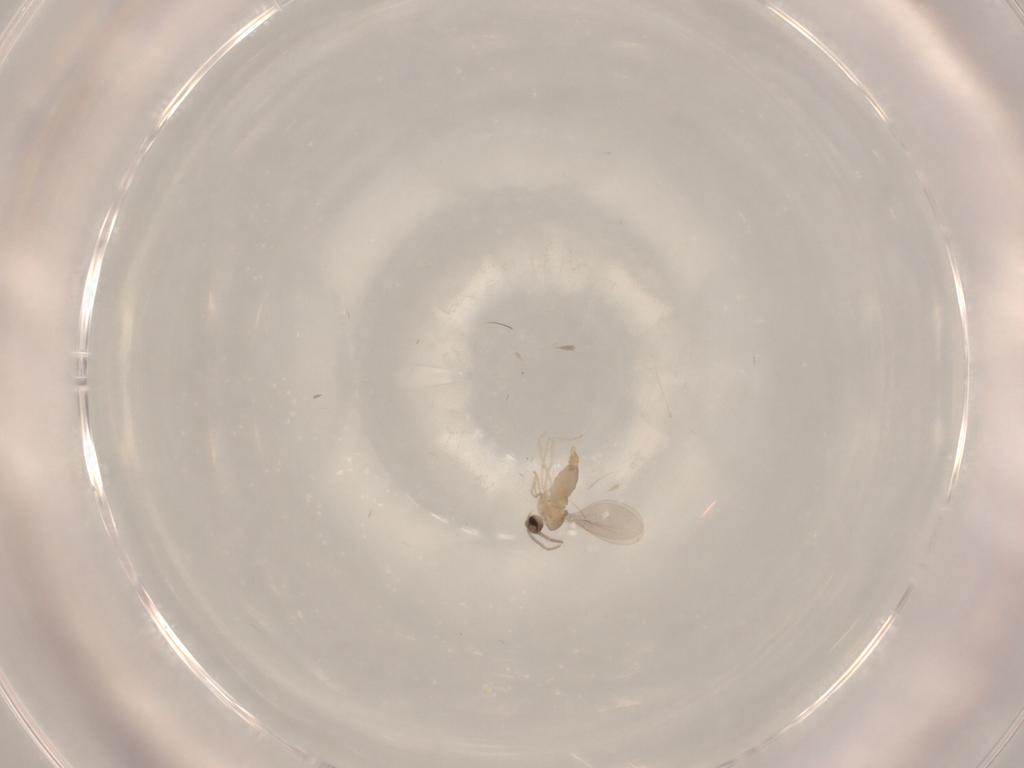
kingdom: Animalia
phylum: Arthropoda
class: Insecta
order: Diptera
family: Cecidomyiidae
